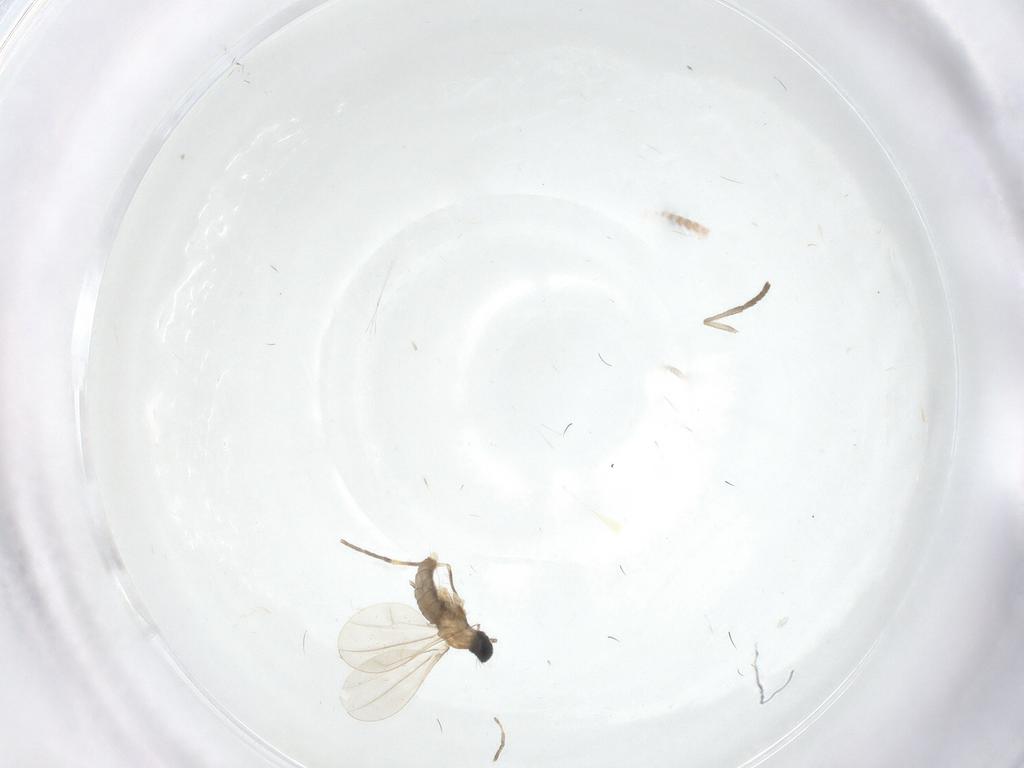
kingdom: Animalia
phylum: Arthropoda
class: Insecta
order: Diptera
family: Cecidomyiidae
